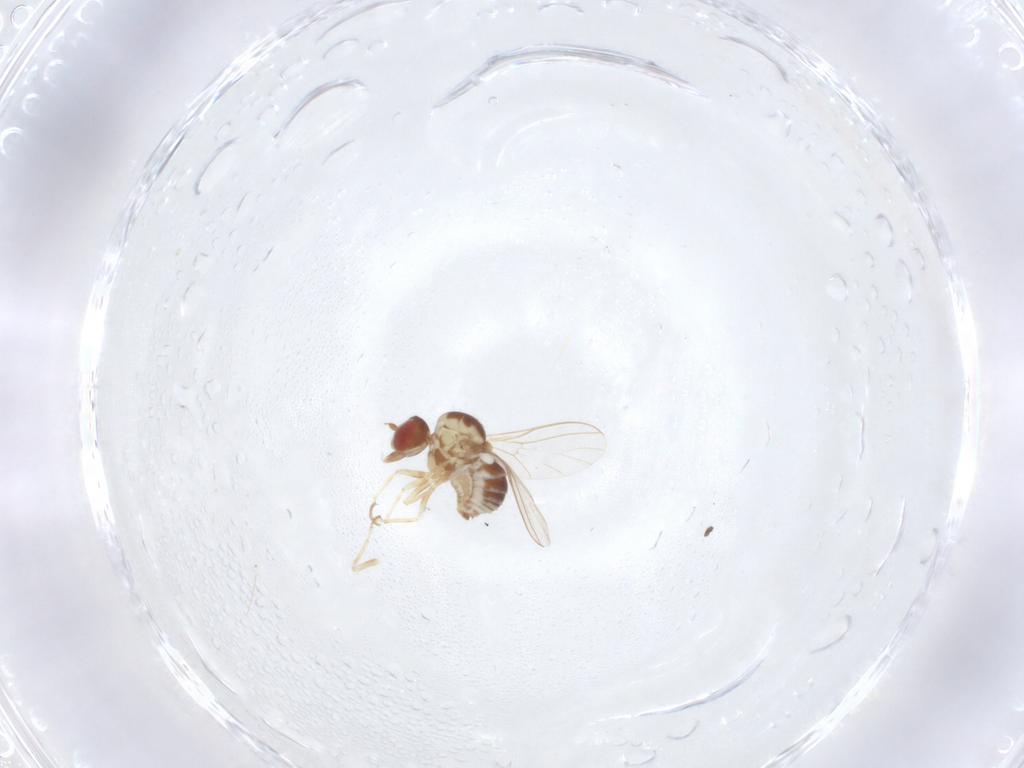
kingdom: Animalia
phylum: Arthropoda
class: Insecta
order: Diptera
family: Ceratopogonidae
